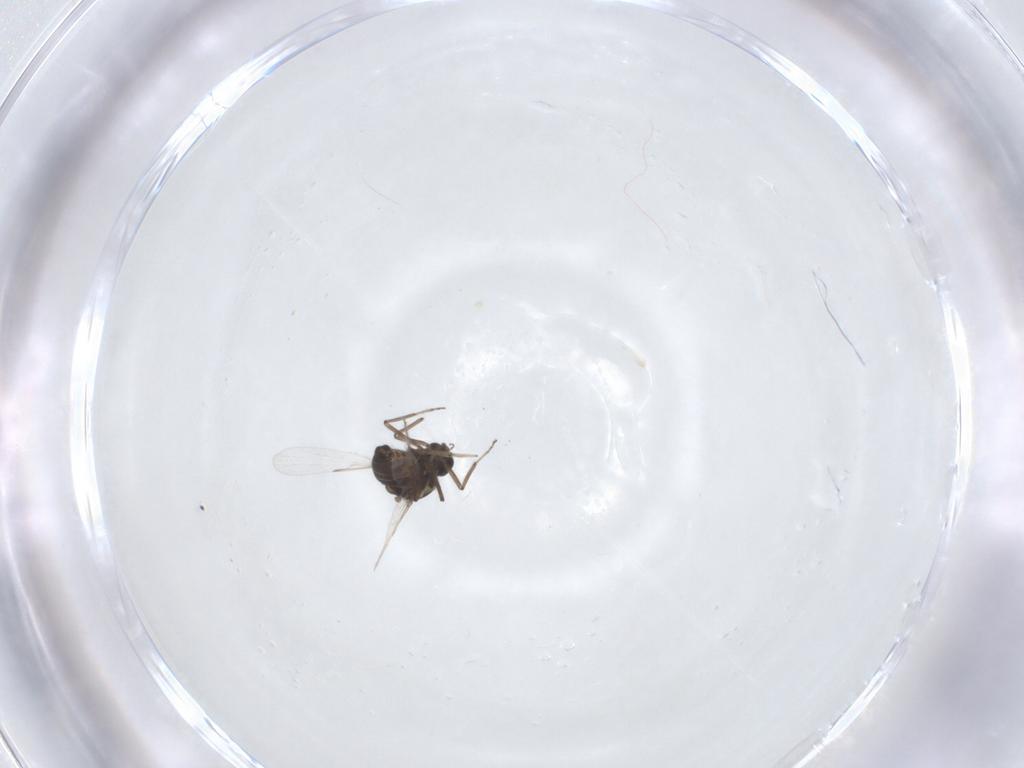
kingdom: Animalia
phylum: Arthropoda
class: Insecta
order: Diptera
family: Ceratopogonidae
